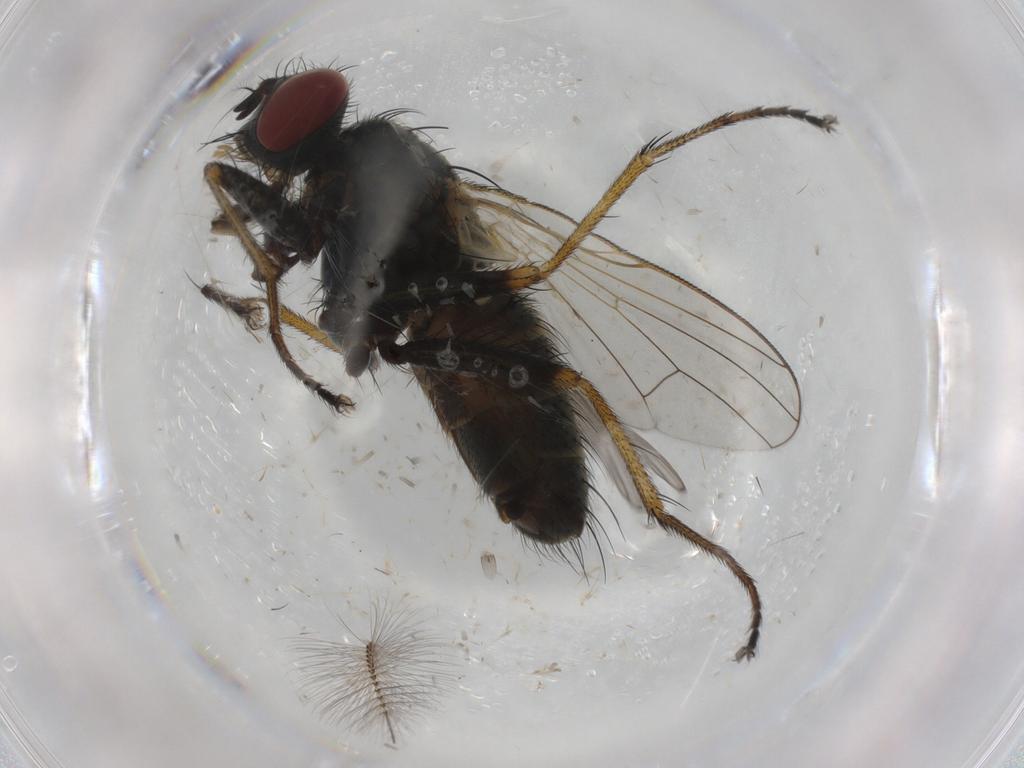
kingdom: Animalia
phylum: Arthropoda
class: Insecta
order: Diptera
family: Muscidae
